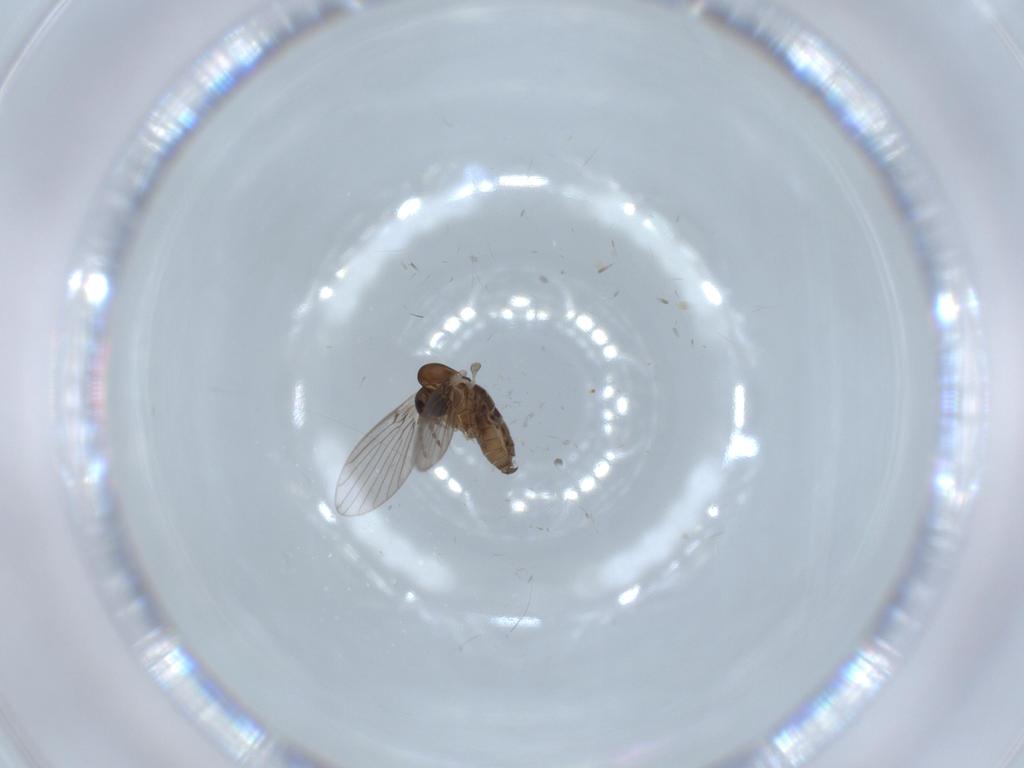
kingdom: Animalia
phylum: Arthropoda
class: Insecta
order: Diptera
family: Psychodidae
